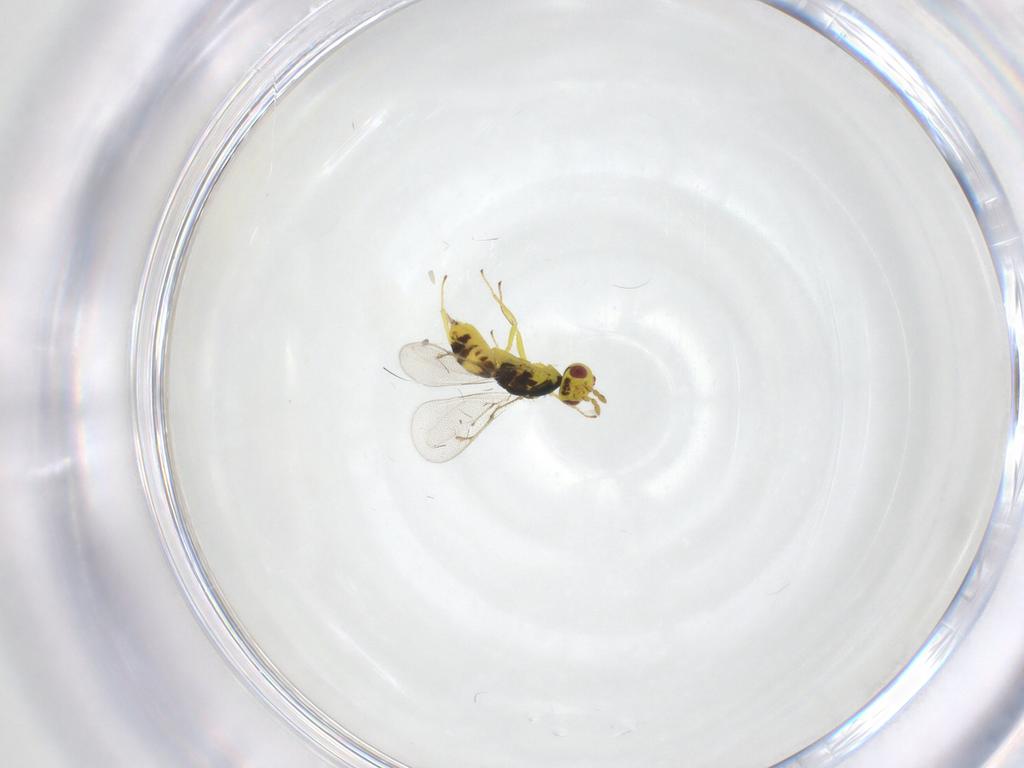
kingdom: Animalia
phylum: Arthropoda
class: Insecta
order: Hymenoptera
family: Eulophidae
